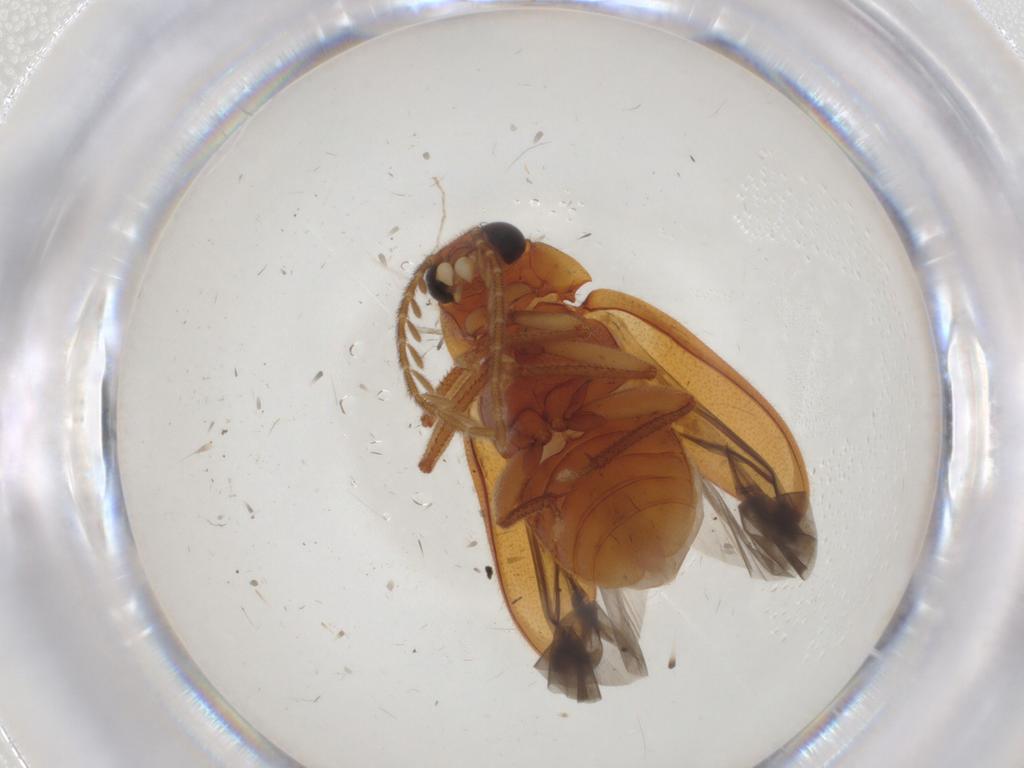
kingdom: Animalia
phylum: Arthropoda
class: Insecta
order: Coleoptera
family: Ptilodactylidae
